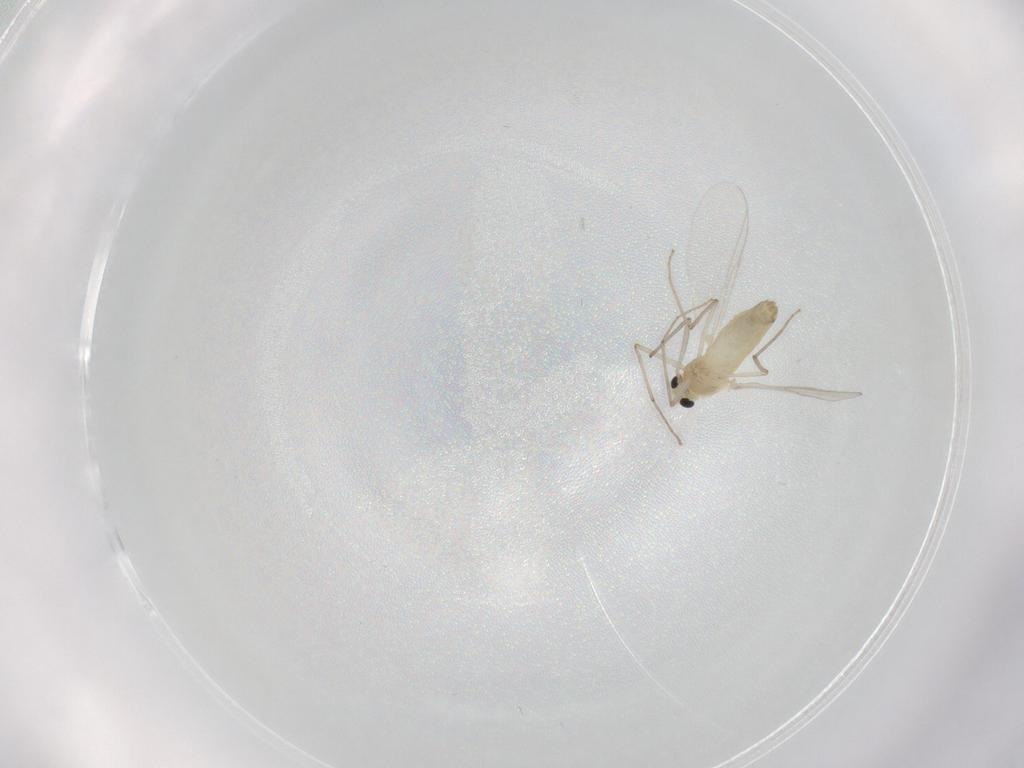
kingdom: Animalia
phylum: Arthropoda
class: Insecta
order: Diptera
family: Chironomidae
